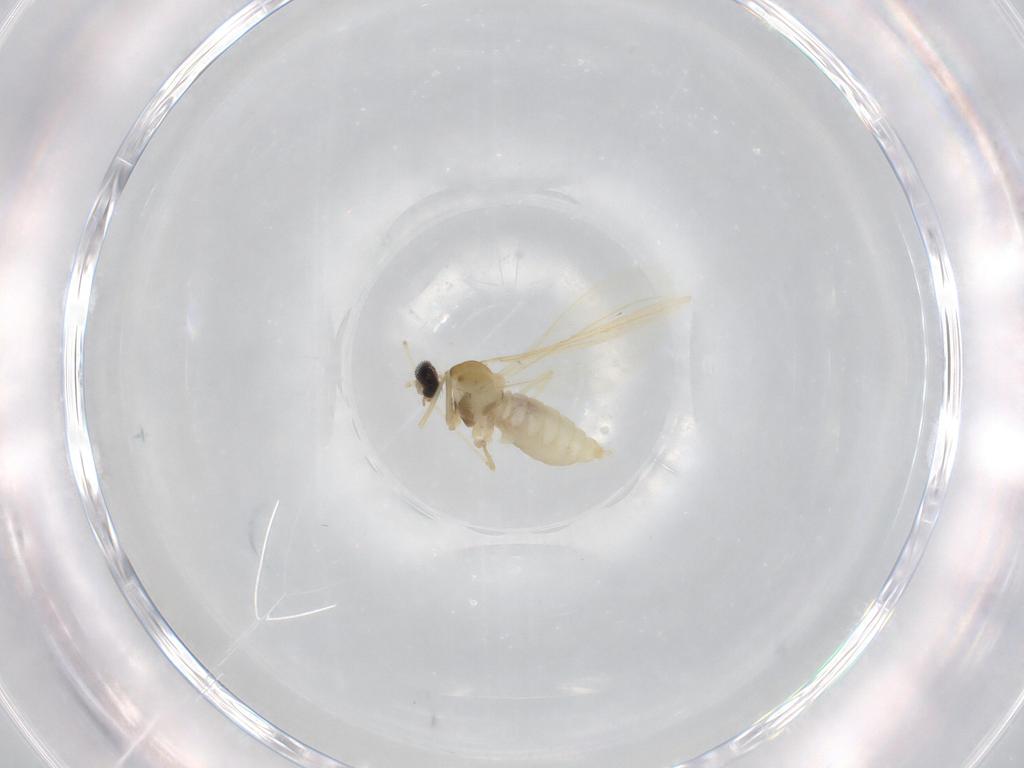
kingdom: Animalia
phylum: Arthropoda
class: Insecta
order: Diptera
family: Cecidomyiidae
